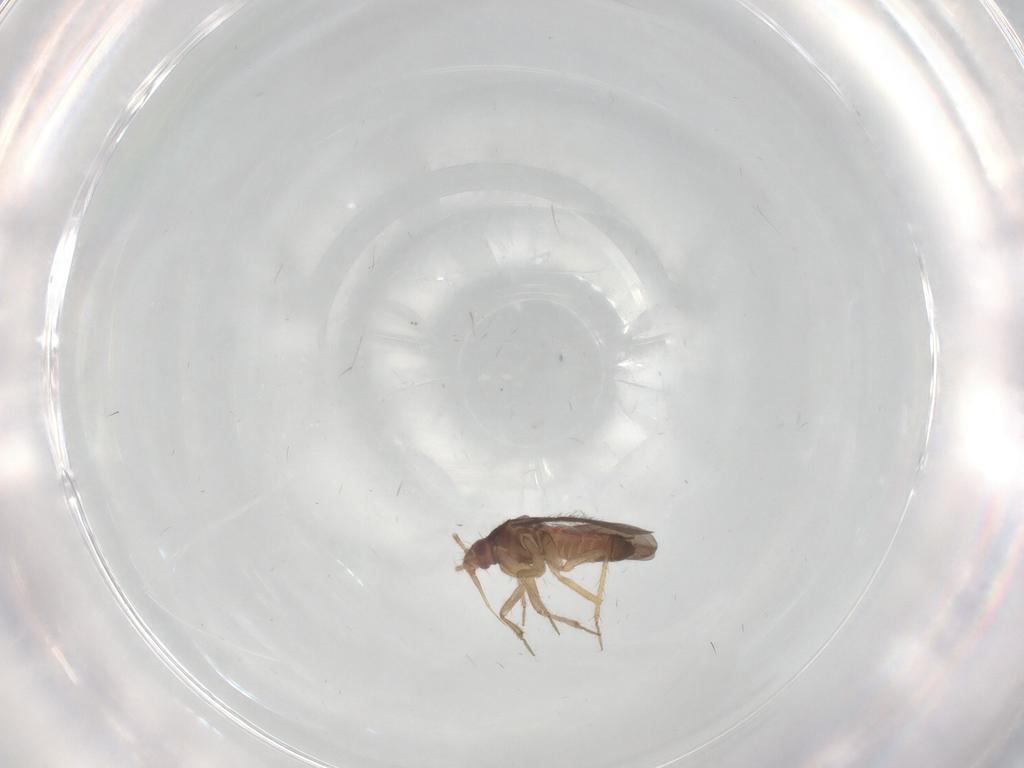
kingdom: Animalia
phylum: Arthropoda
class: Insecta
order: Hemiptera
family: Ceratocombidae
